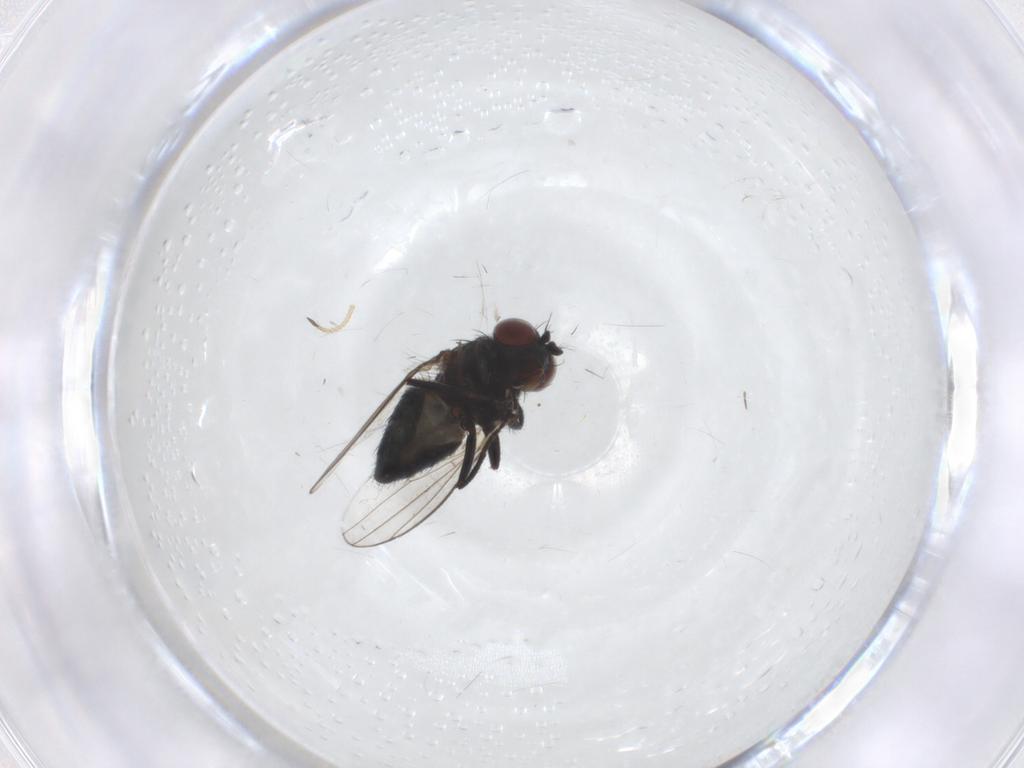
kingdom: Animalia
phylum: Arthropoda
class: Insecta
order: Diptera
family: Ephydridae
